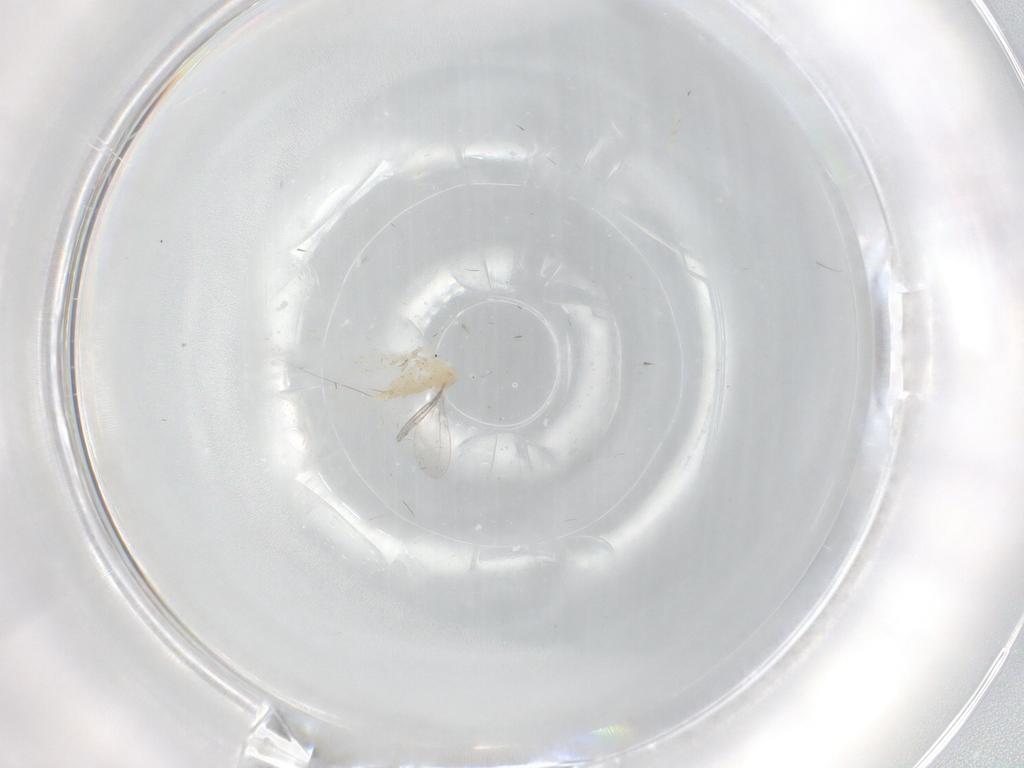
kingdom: Animalia
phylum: Arthropoda
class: Insecta
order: Diptera
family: Cecidomyiidae
